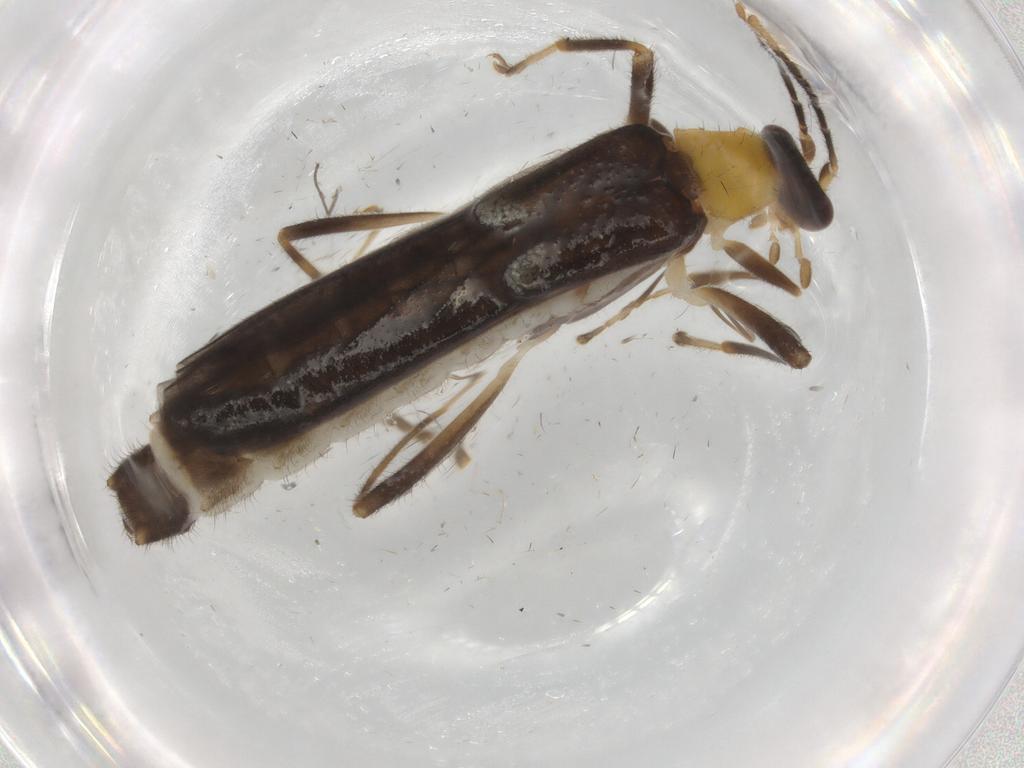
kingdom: Animalia
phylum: Arthropoda
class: Insecta
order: Coleoptera
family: Cantharidae
